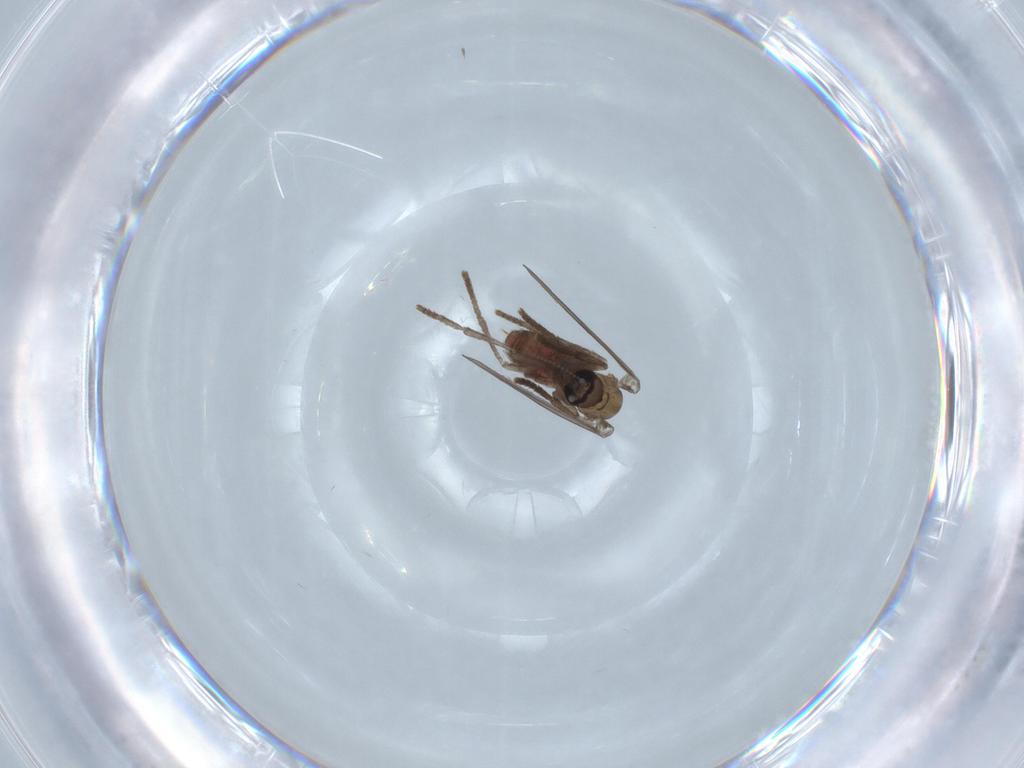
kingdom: Animalia
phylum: Arthropoda
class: Insecta
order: Diptera
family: Psychodidae
